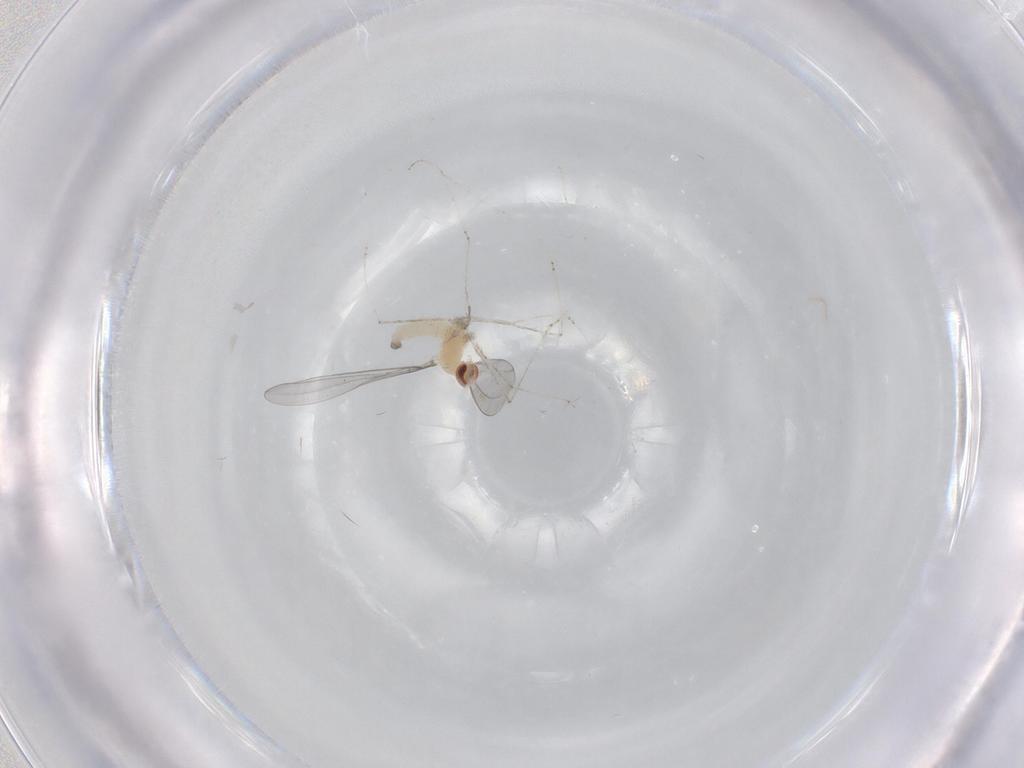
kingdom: Animalia
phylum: Arthropoda
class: Insecta
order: Diptera
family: Cecidomyiidae
